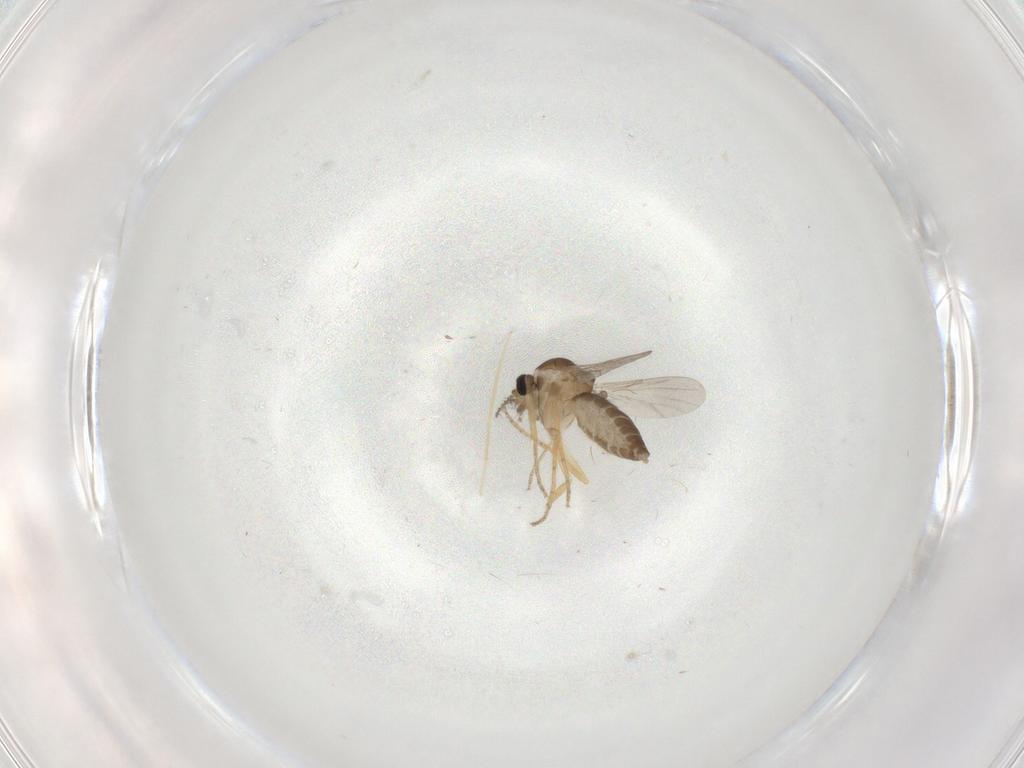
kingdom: Animalia
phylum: Arthropoda
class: Insecta
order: Diptera
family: Ceratopogonidae
